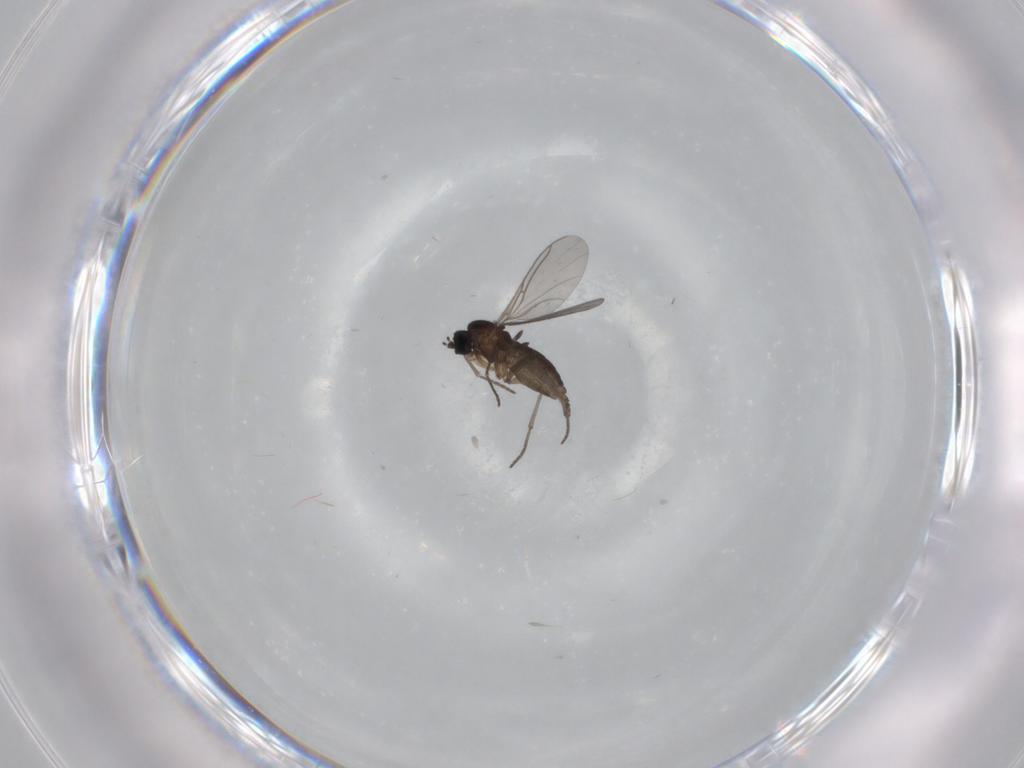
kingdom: Animalia
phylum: Arthropoda
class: Insecta
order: Diptera
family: Sciaridae
